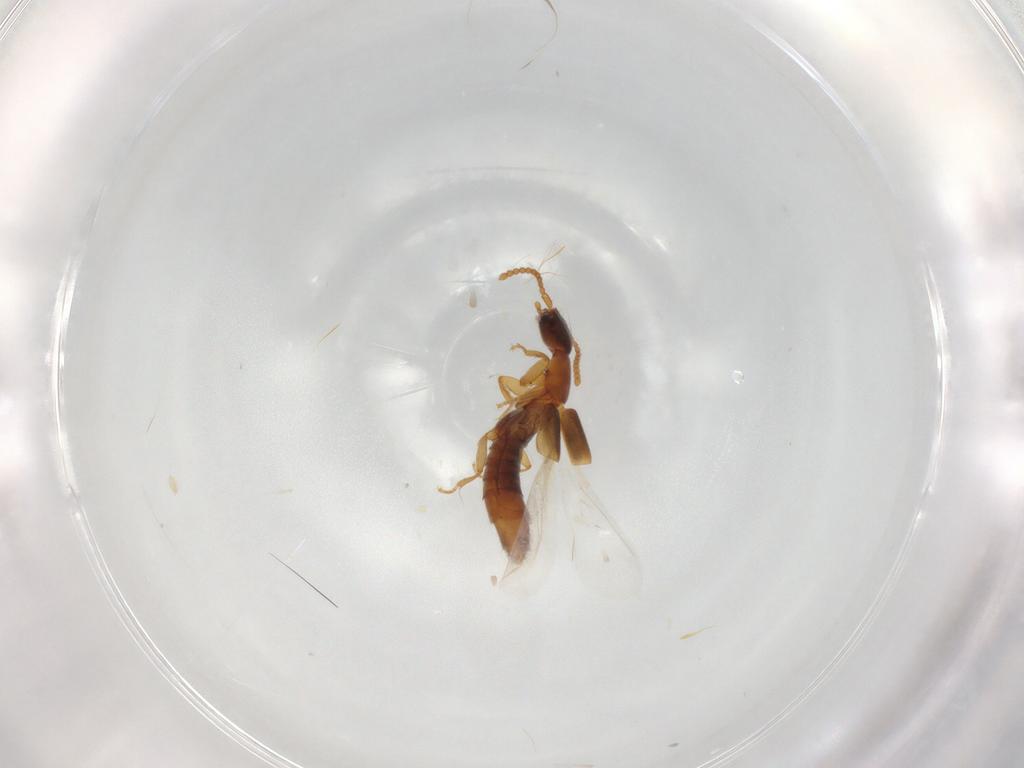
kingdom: Animalia
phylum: Arthropoda
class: Insecta
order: Coleoptera
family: Staphylinidae
